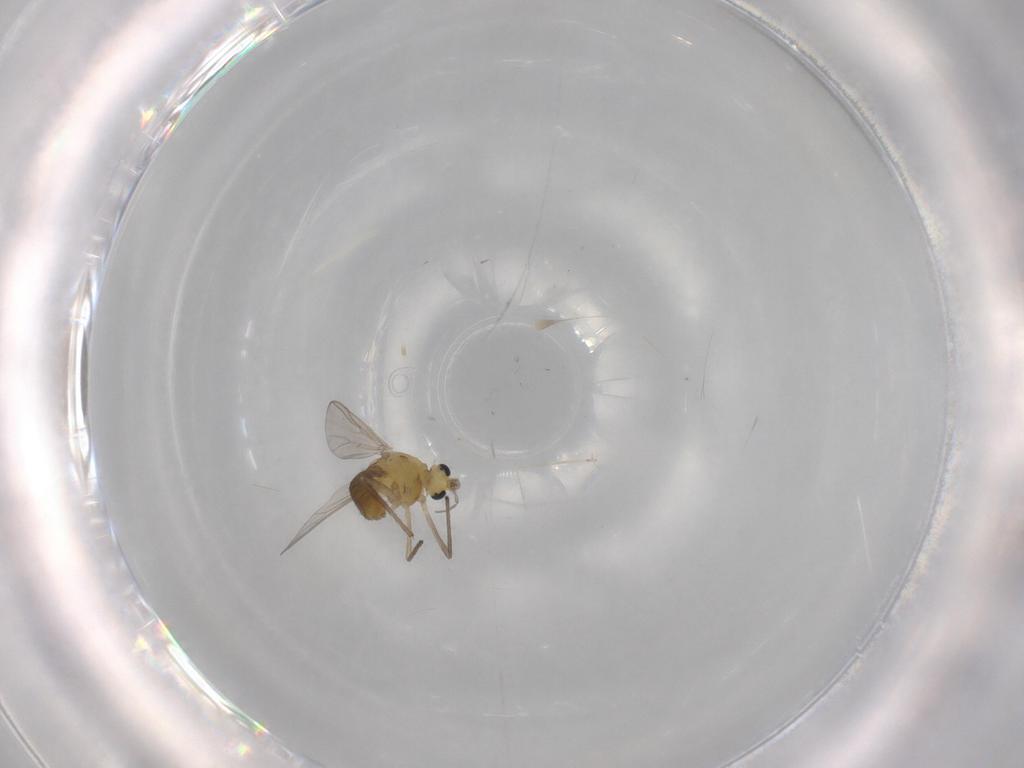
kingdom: Animalia
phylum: Arthropoda
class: Insecta
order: Diptera
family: Chironomidae
